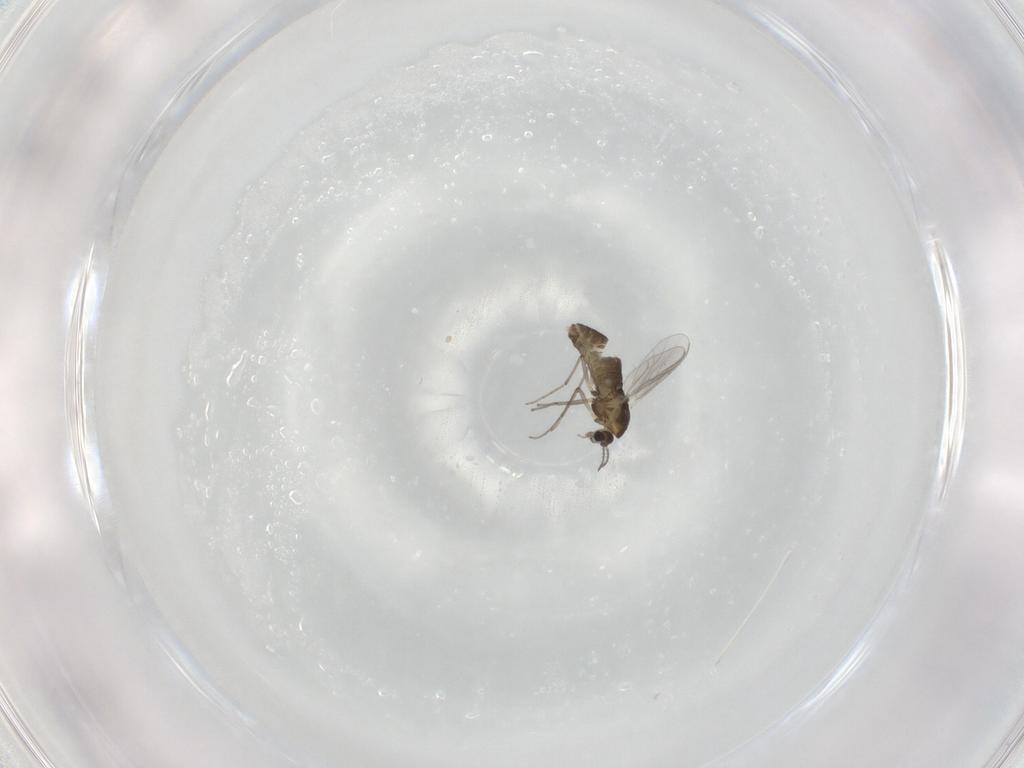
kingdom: Animalia
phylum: Arthropoda
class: Insecta
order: Diptera
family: Chironomidae
